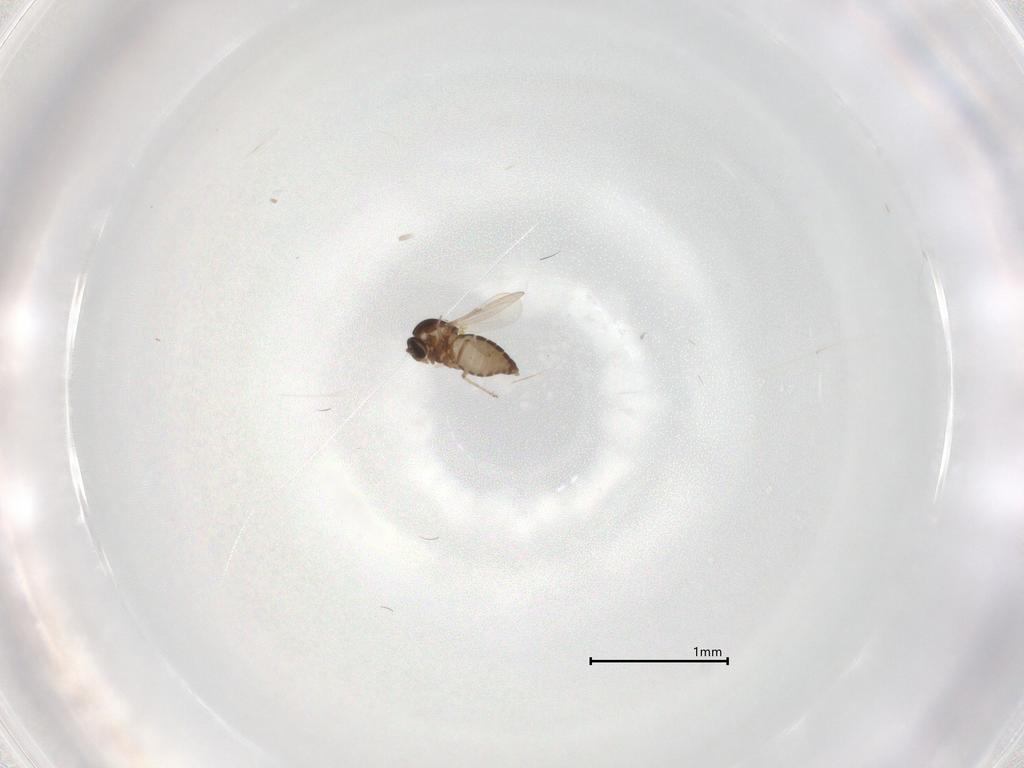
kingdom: Animalia
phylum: Arthropoda
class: Insecta
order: Diptera
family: Ceratopogonidae
